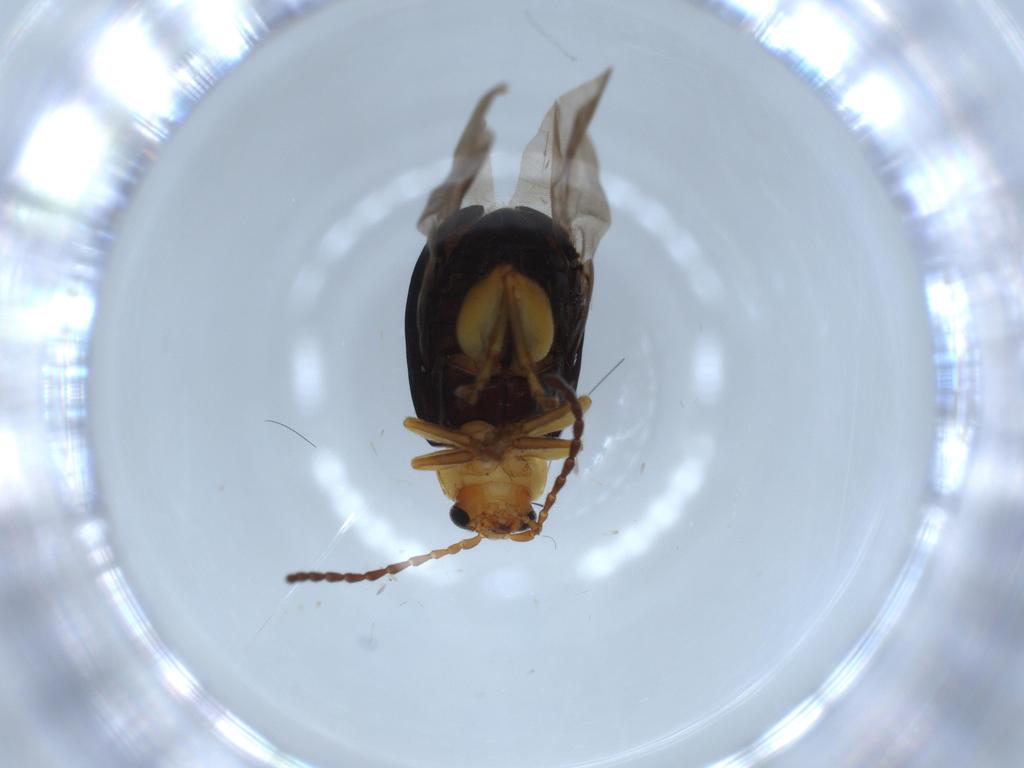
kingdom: Animalia
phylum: Arthropoda
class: Insecta
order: Coleoptera
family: Chrysomelidae
